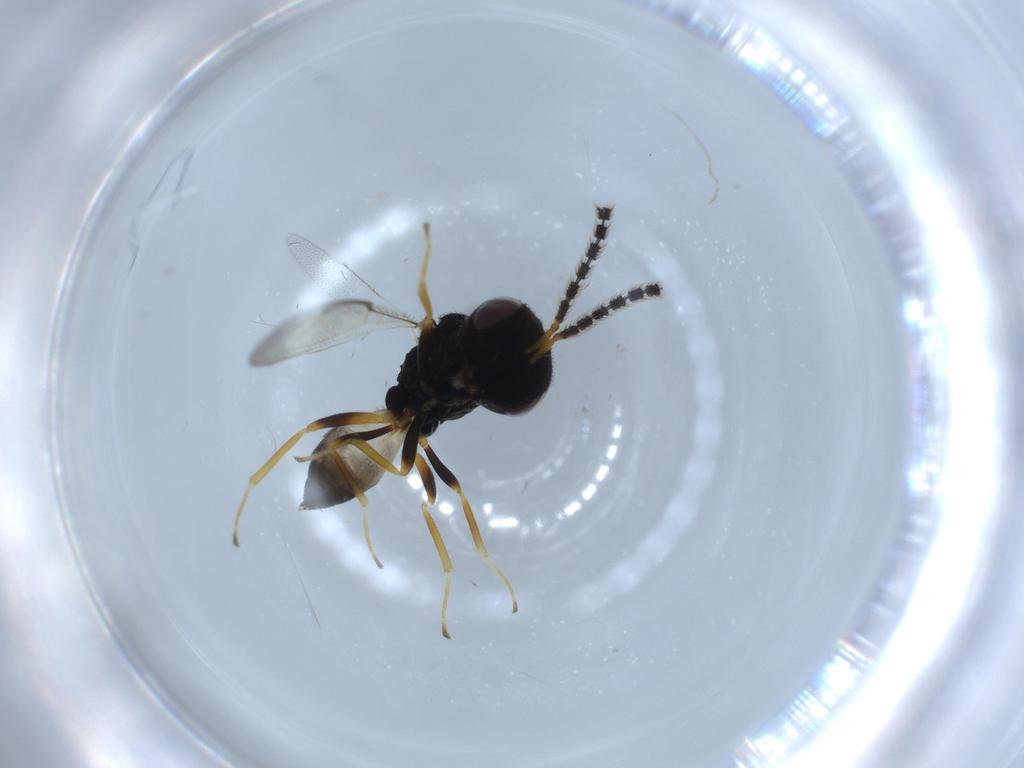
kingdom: Animalia
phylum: Arthropoda
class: Insecta
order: Hymenoptera
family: Pteromalidae
